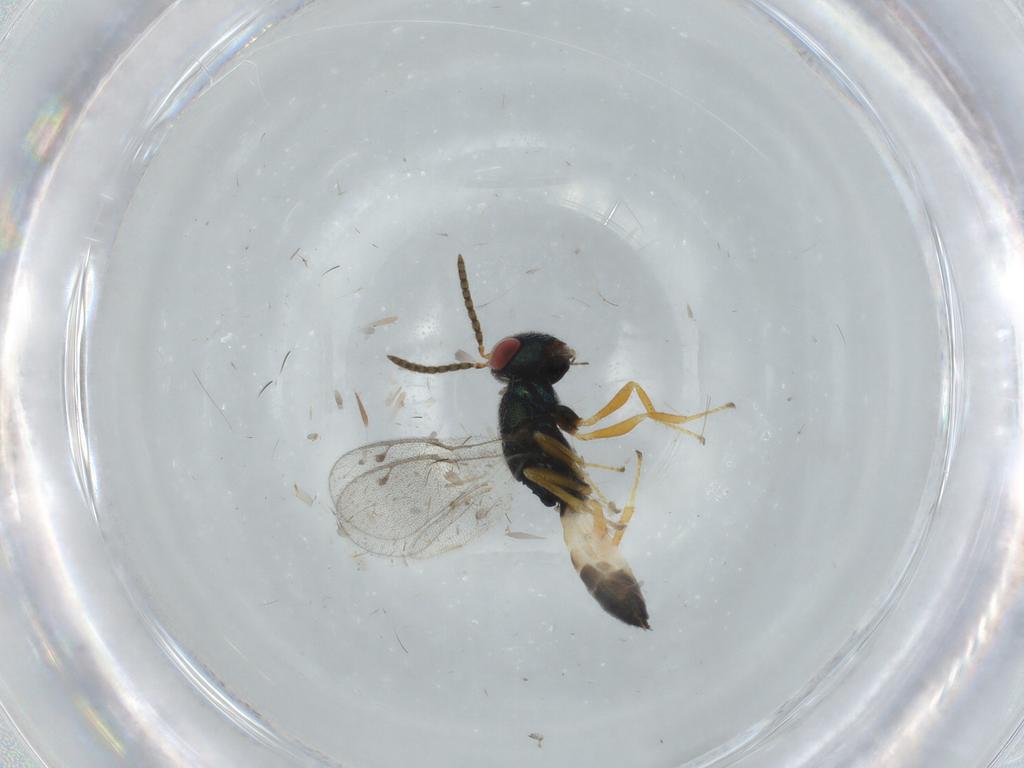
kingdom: Animalia
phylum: Arthropoda
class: Insecta
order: Hymenoptera
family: Pteromalidae
